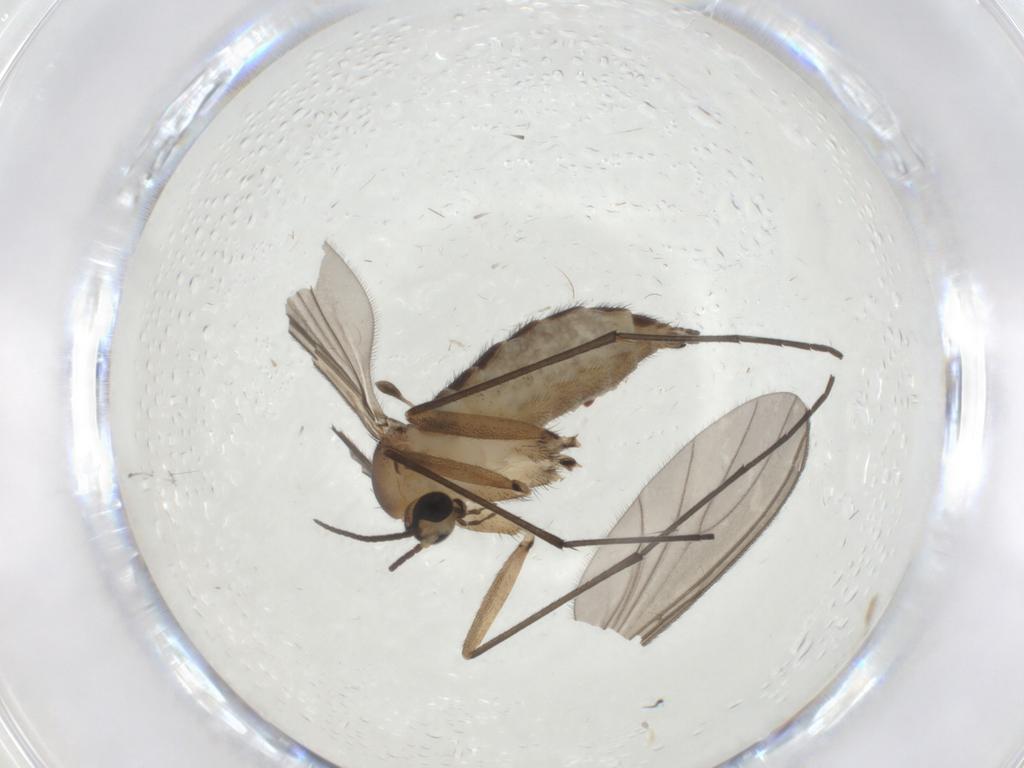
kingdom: Animalia
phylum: Arthropoda
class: Insecta
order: Diptera
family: Sciaridae
